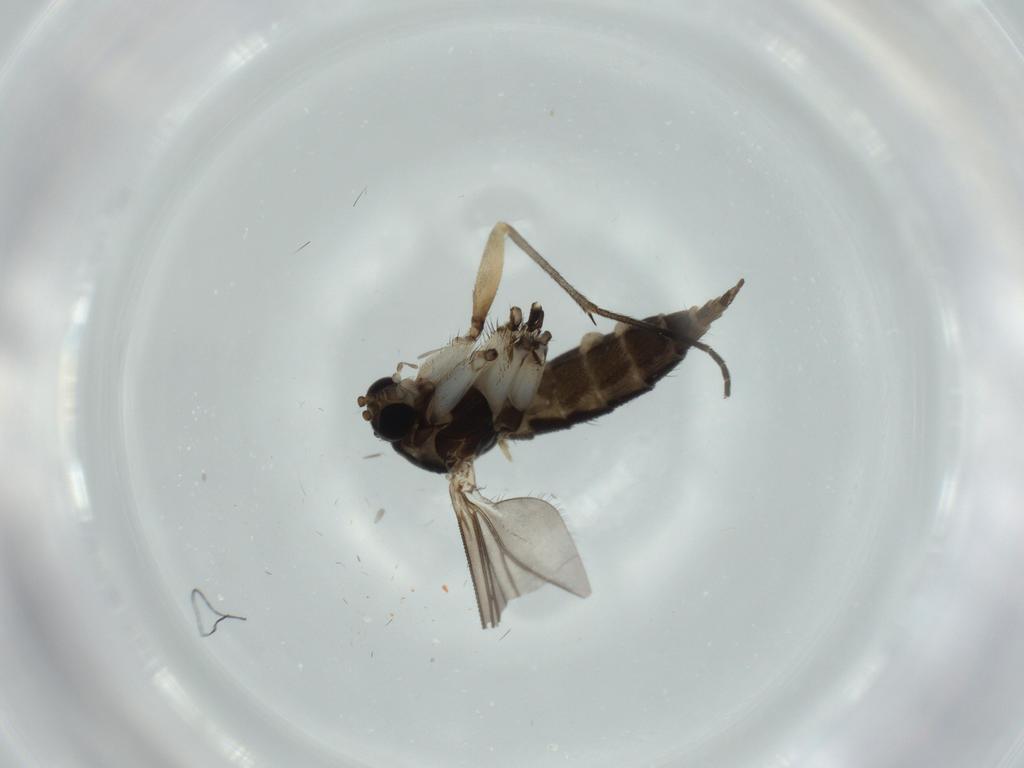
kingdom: Animalia
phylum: Arthropoda
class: Insecta
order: Diptera
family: Sciaridae
